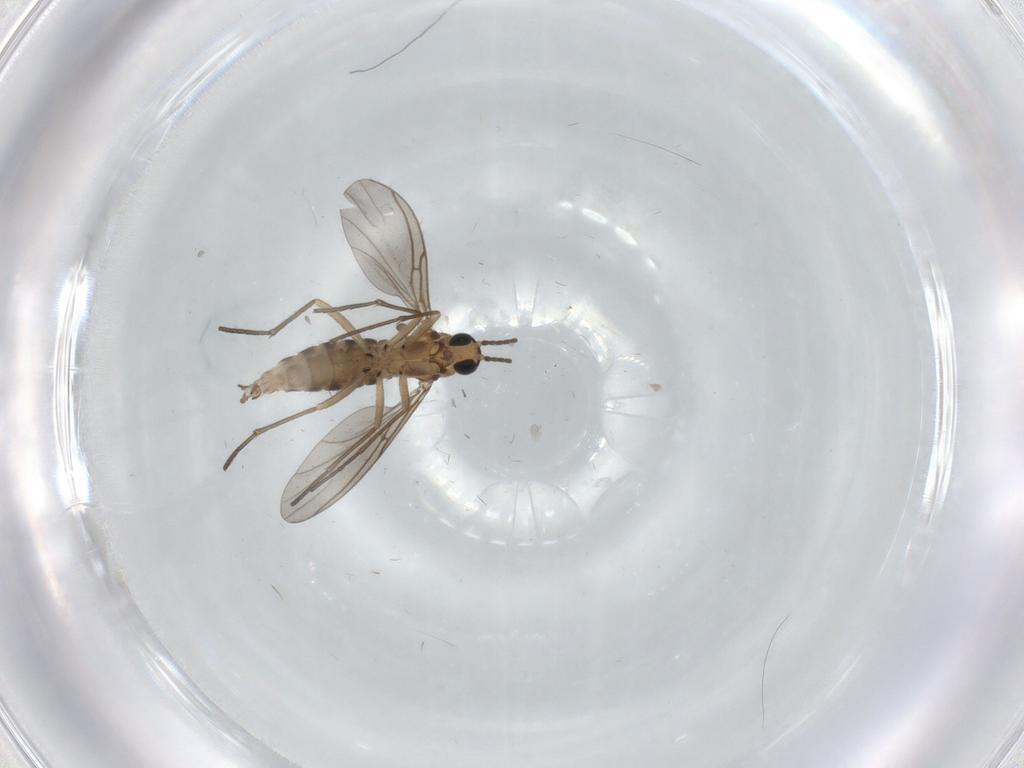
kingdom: Animalia
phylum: Arthropoda
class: Insecta
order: Diptera
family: Sciaridae
